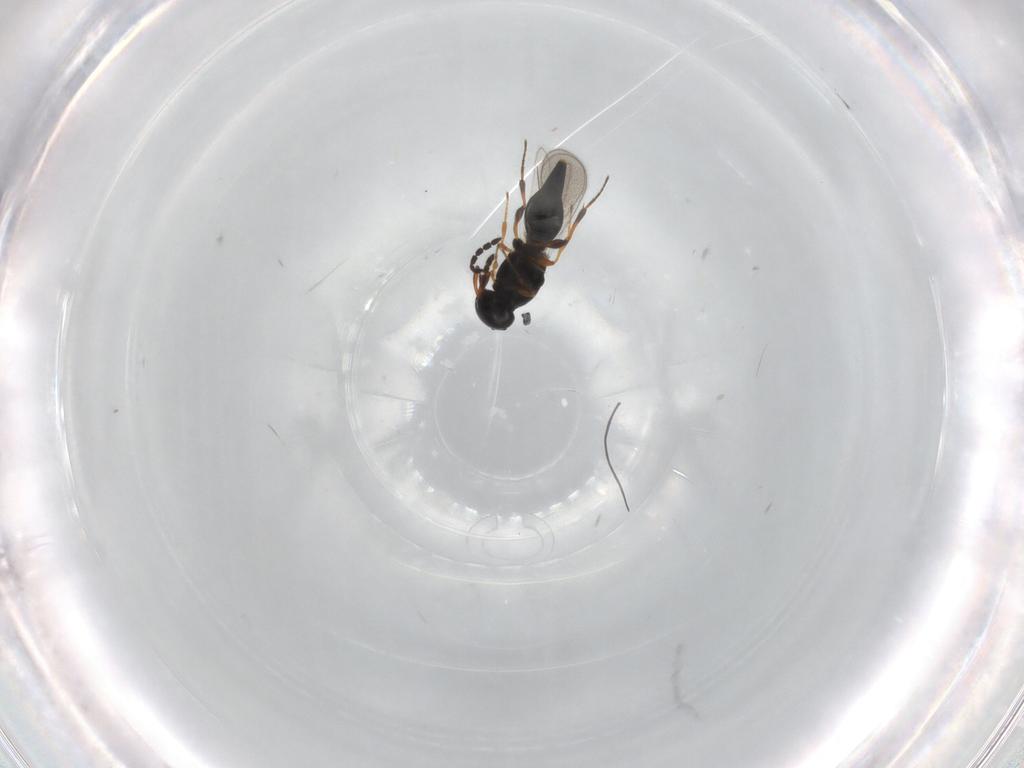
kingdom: Animalia
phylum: Arthropoda
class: Insecta
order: Hymenoptera
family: Platygastridae
